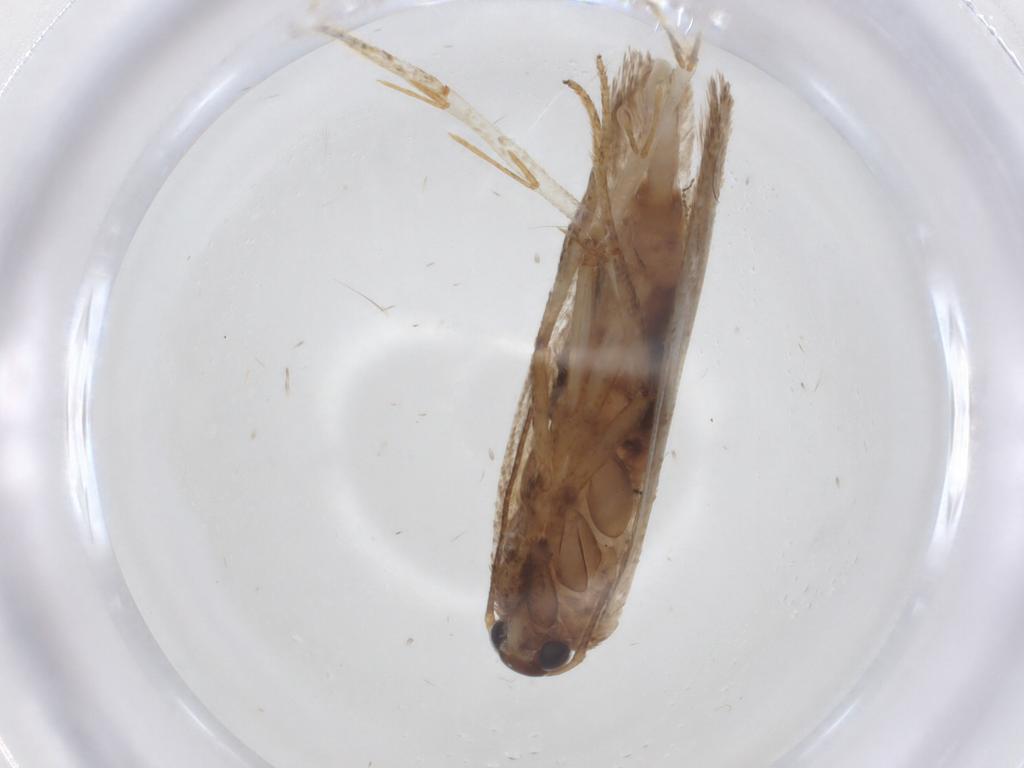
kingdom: Animalia
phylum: Arthropoda
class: Insecta
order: Lepidoptera
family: Blastobasidae
